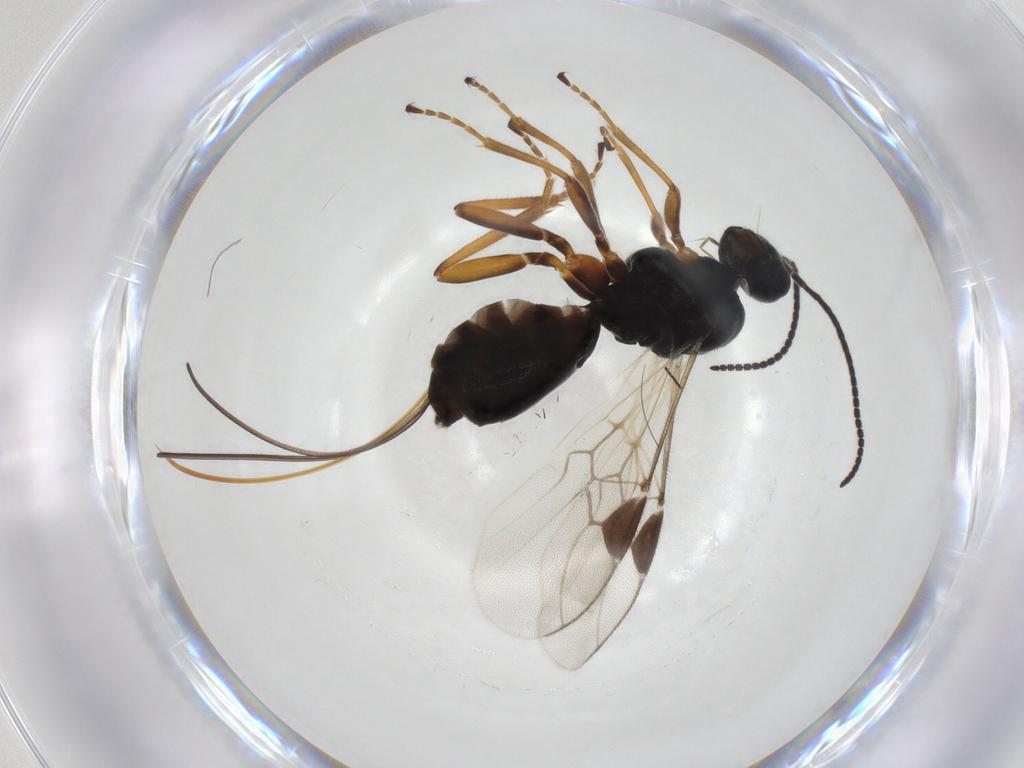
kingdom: Animalia
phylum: Arthropoda
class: Insecta
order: Hymenoptera
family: Braconidae
